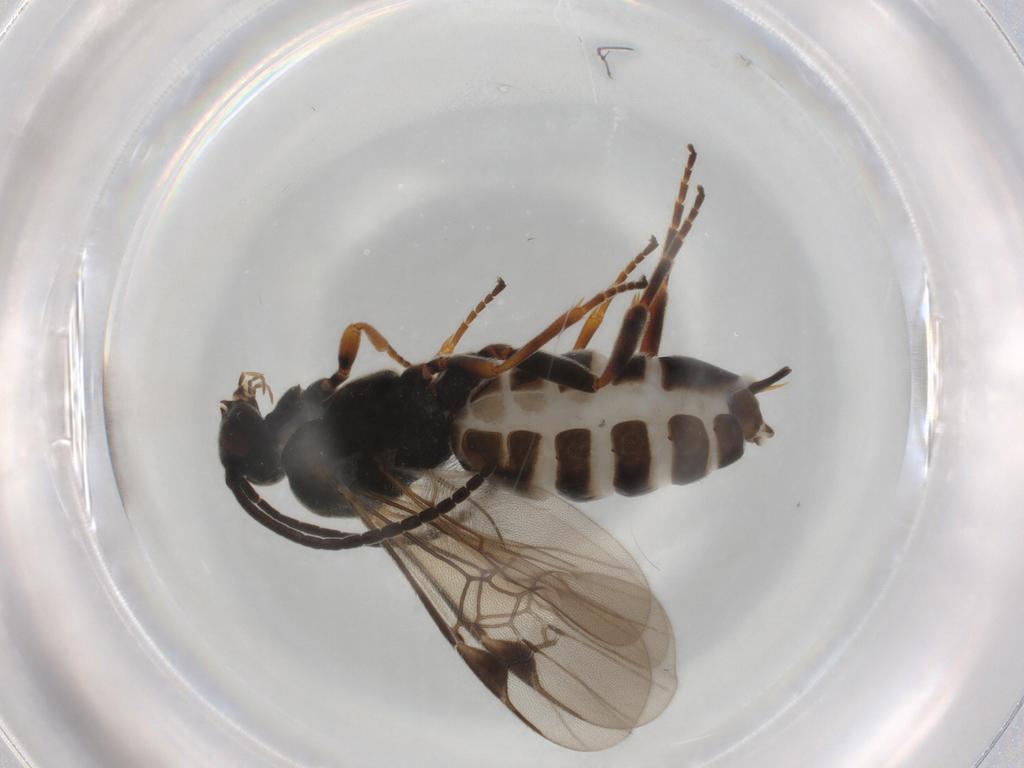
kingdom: Animalia
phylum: Arthropoda
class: Insecta
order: Hymenoptera
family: Braconidae
